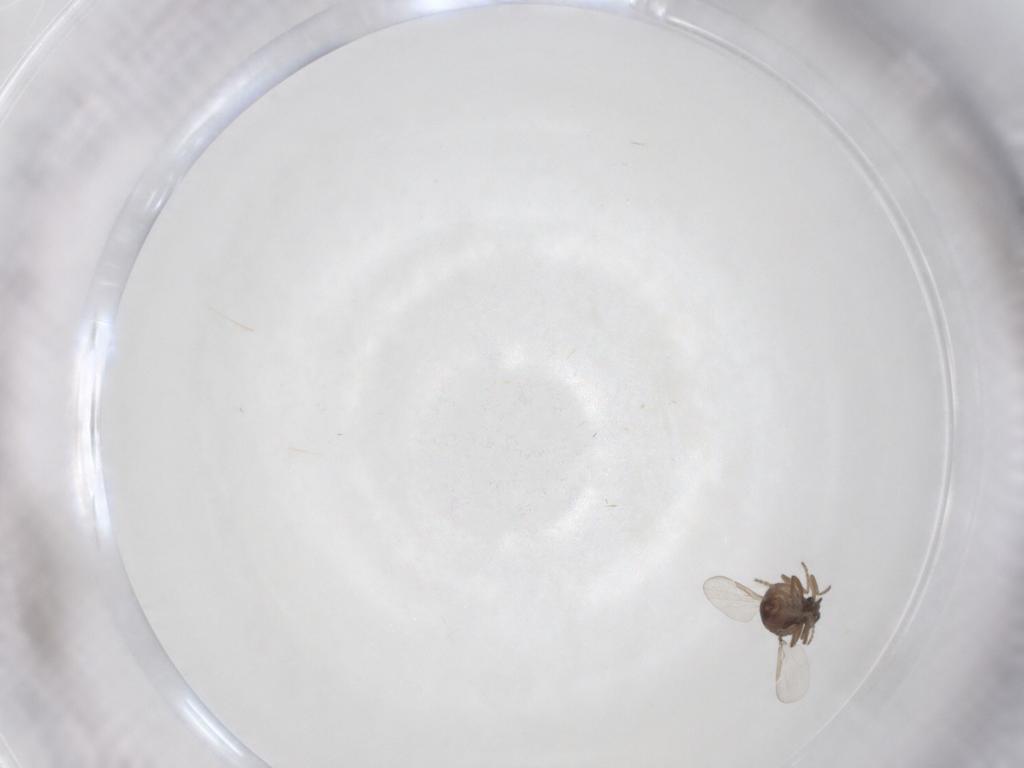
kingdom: Animalia
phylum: Arthropoda
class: Insecta
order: Diptera
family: Ceratopogonidae
